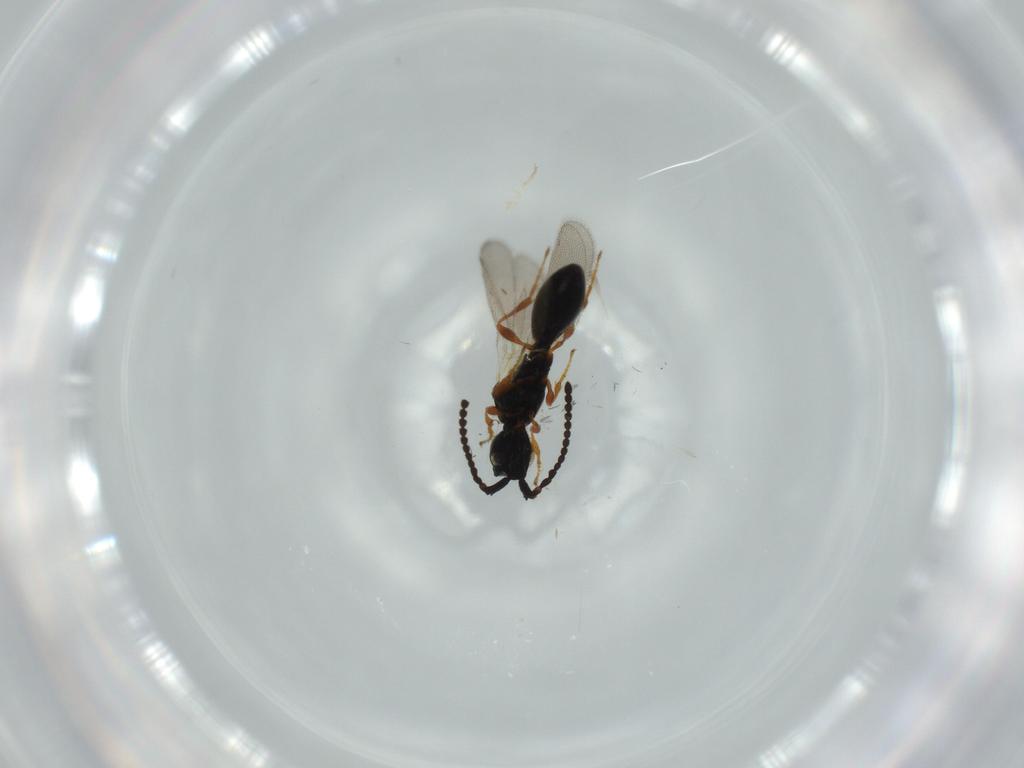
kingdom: Animalia
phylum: Arthropoda
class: Insecta
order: Hymenoptera
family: Diapriidae
